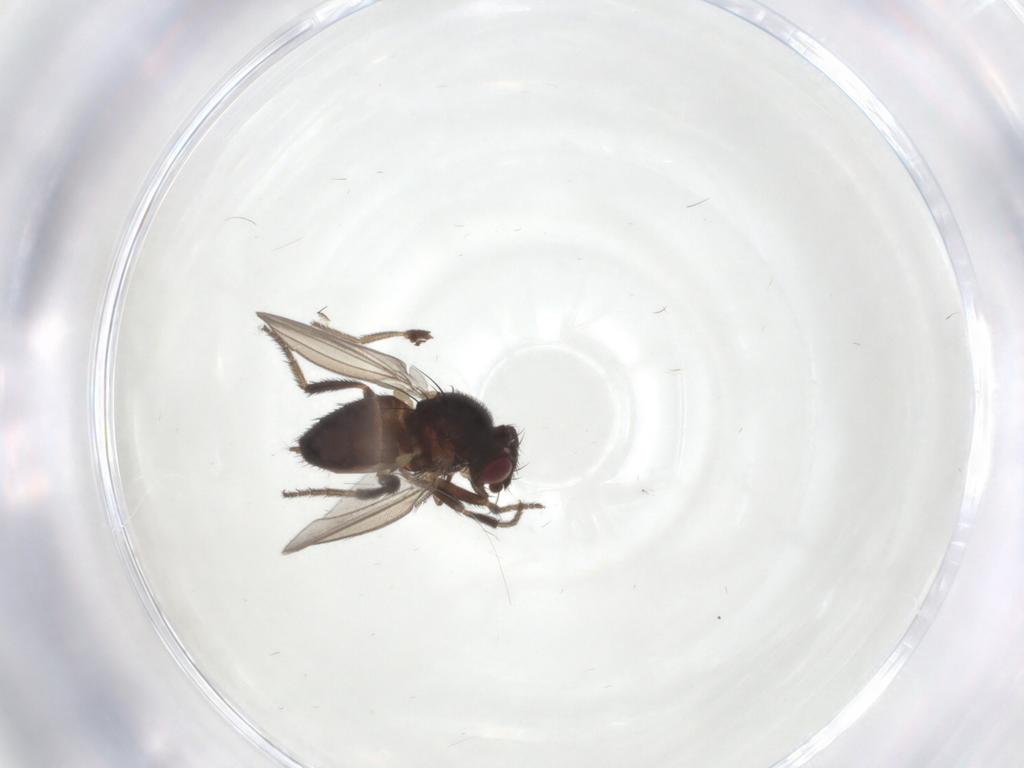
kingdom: Animalia
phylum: Arthropoda
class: Insecta
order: Diptera
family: Milichiidae
